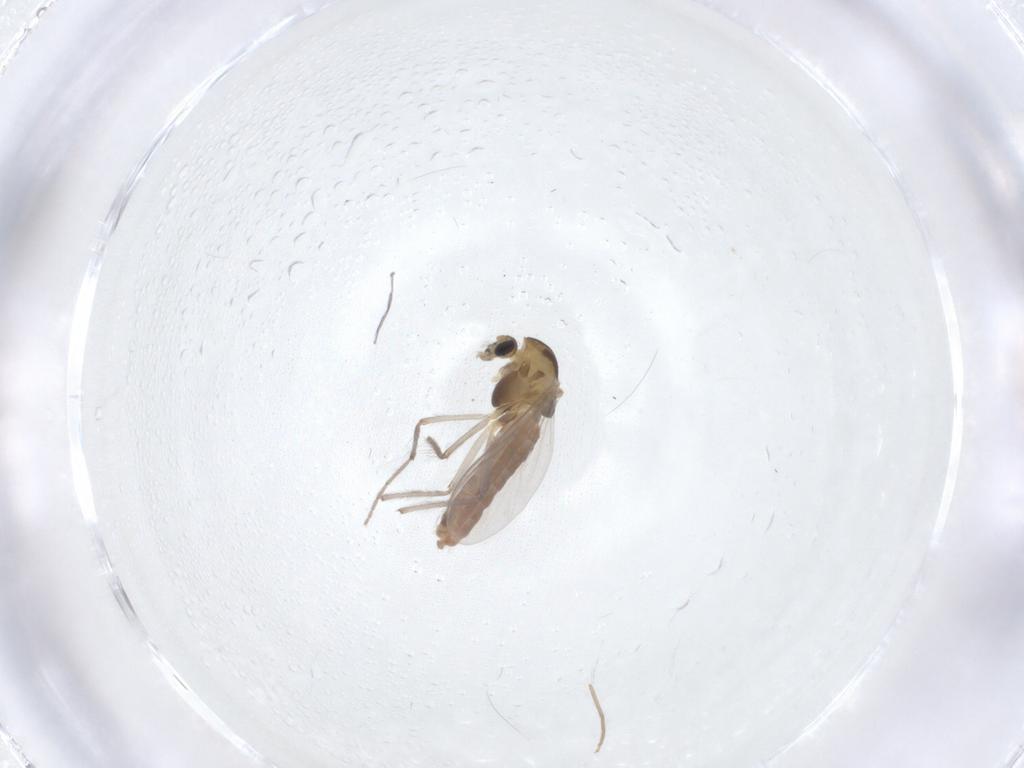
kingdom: Animalia
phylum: Arthropoda
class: Insecta
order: Diptera
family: Chironomidae
